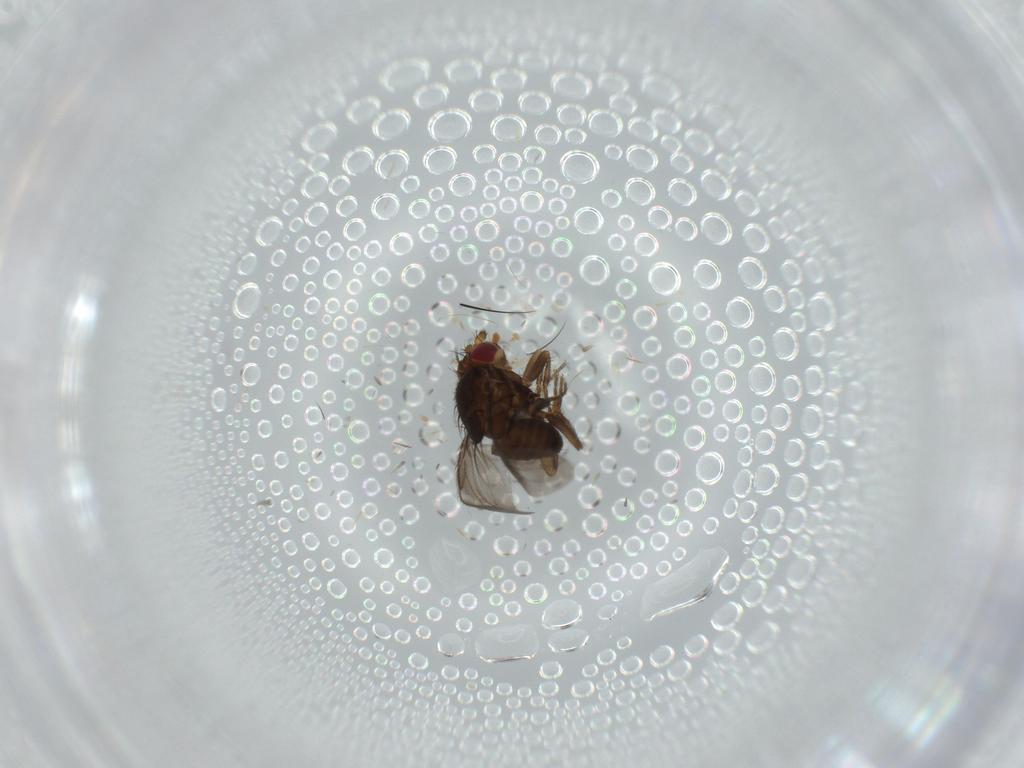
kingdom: Animalia
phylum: Arthropoda
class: Insecta
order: Diptera
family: Sphaeroceridae
